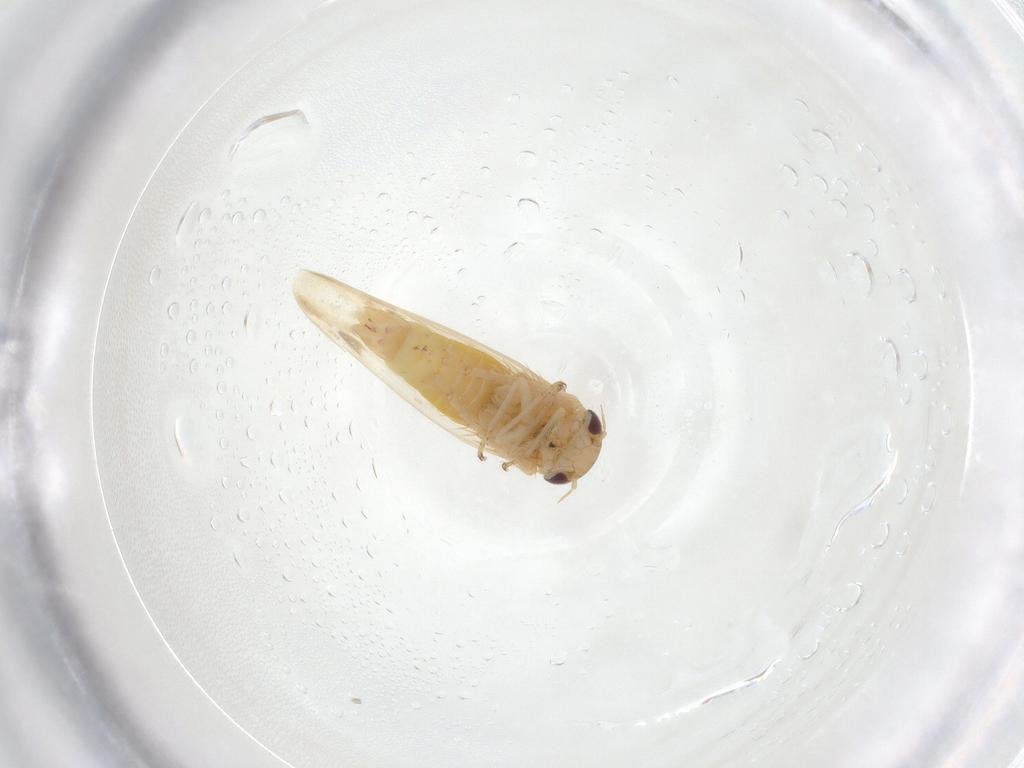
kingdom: Animalia
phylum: Arthropoda
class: Insecta
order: Hemiptera
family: Cicadellidae
